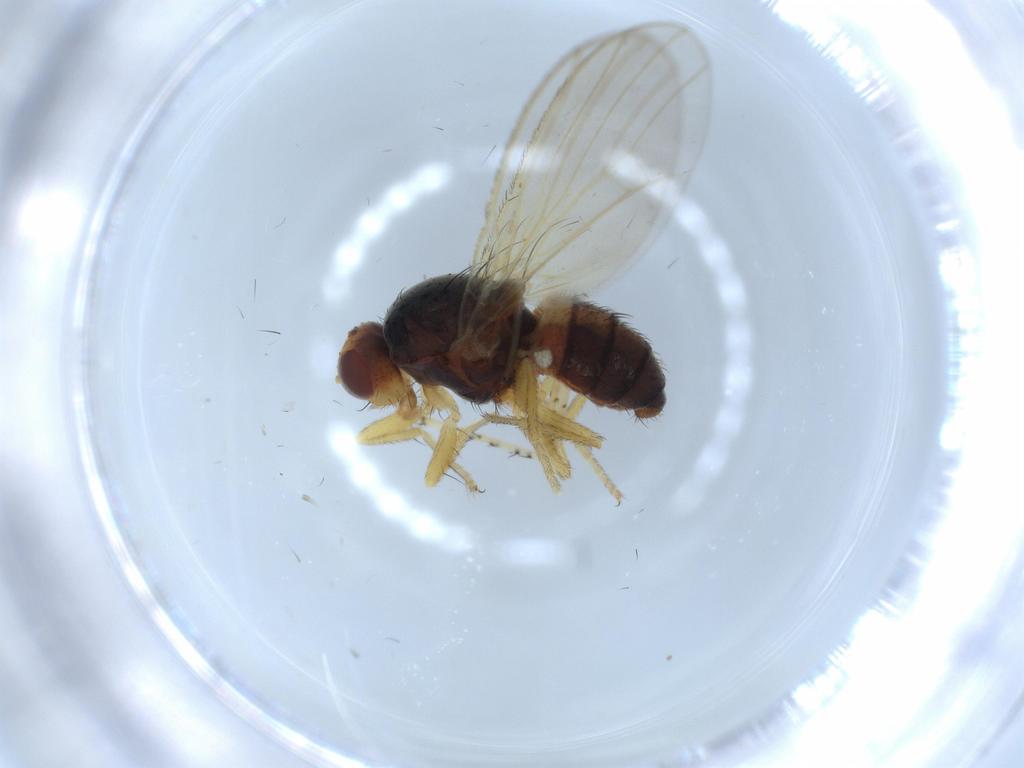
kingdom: Animalia
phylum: Arthropoda
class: Insecta
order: Diptera
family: Heleomyzidae
